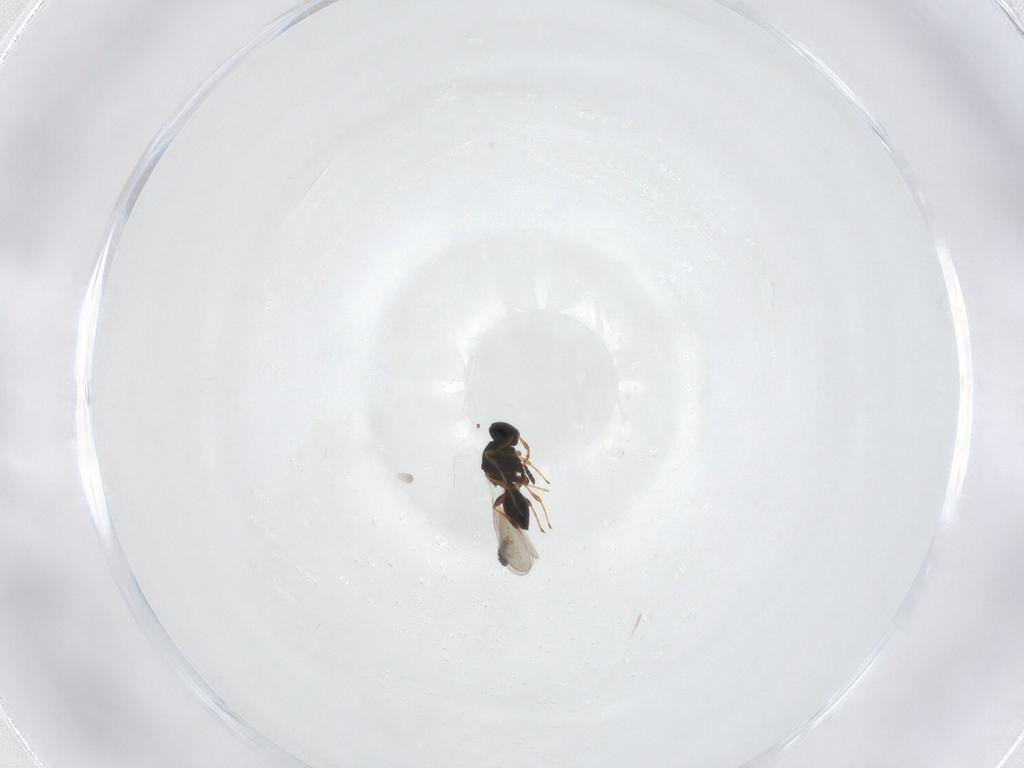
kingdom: Animalia
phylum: Arthropoda
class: Insecta
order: Hymenoptera
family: Platygastridae
